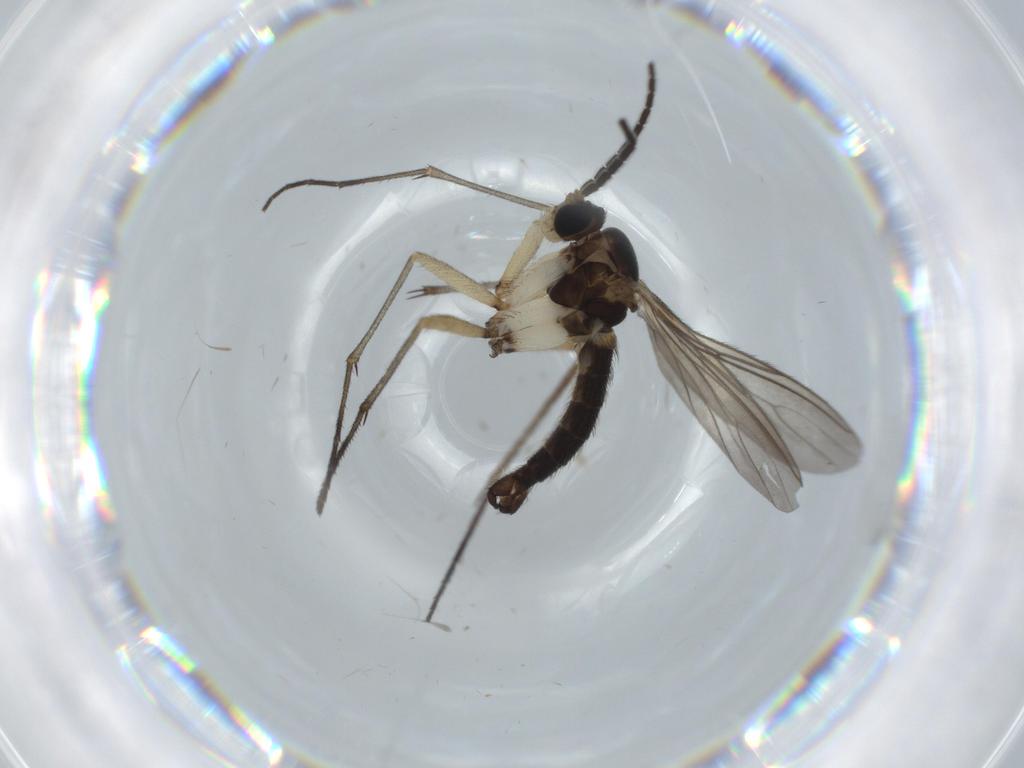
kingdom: Animalia
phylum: Arthropoda
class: Insecta
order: Diptera
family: Sciaridae
